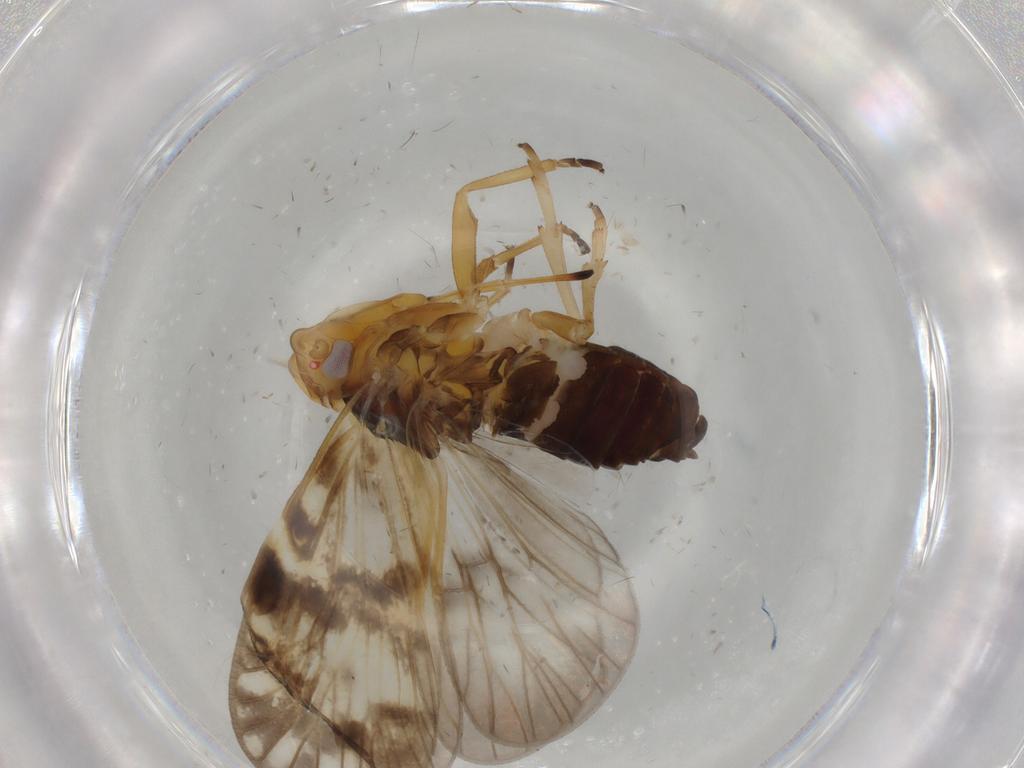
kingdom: Animalia
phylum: Arthropoda
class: Insecta
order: Hemiptera
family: Cixiidae
